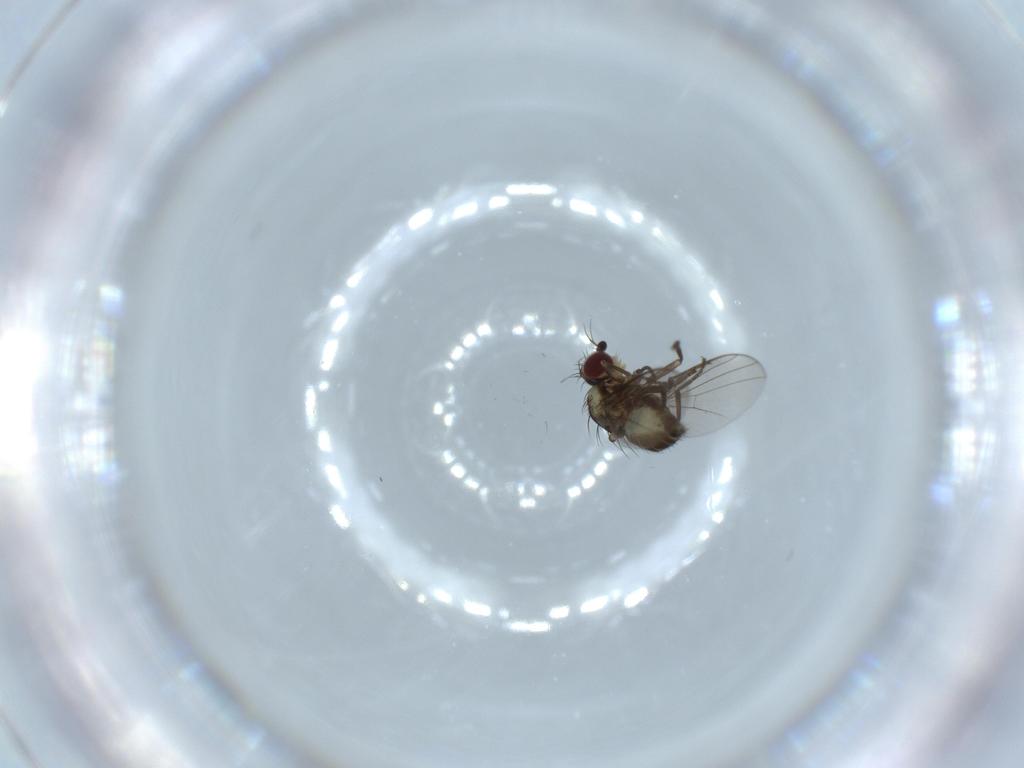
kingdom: Animalia
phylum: Arthropoda
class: Insecta
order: Diptera
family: Agromyzidae
